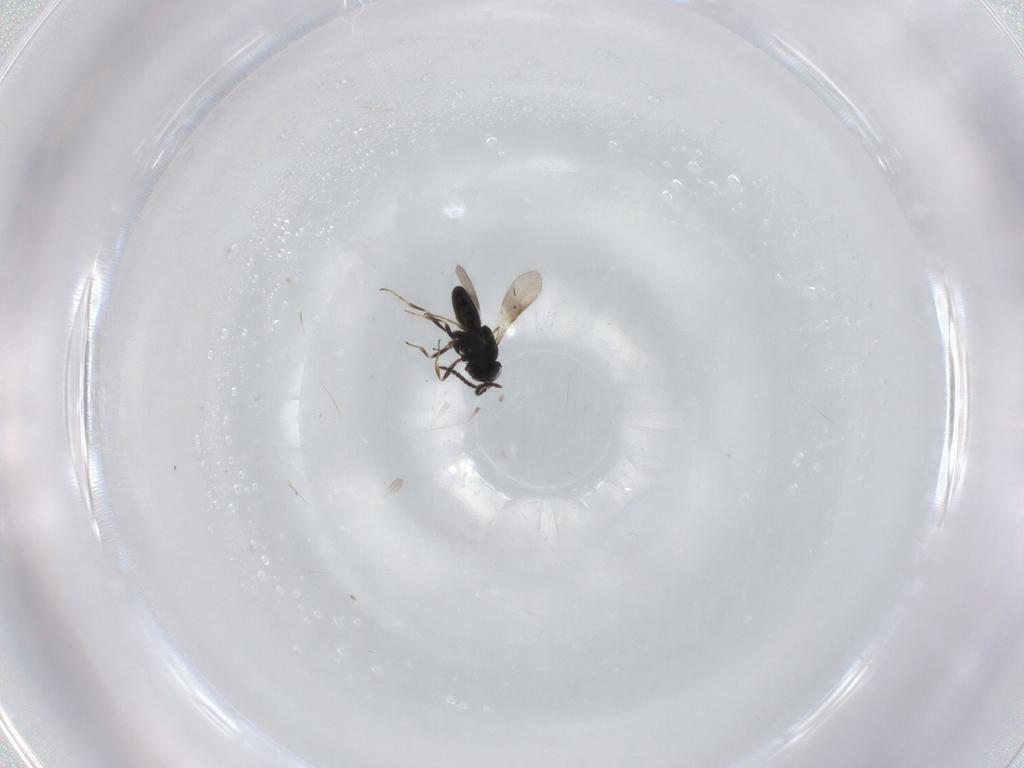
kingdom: Animalia
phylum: Arthropoda
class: Insecta
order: Hymenoptera
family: Scelionidae
